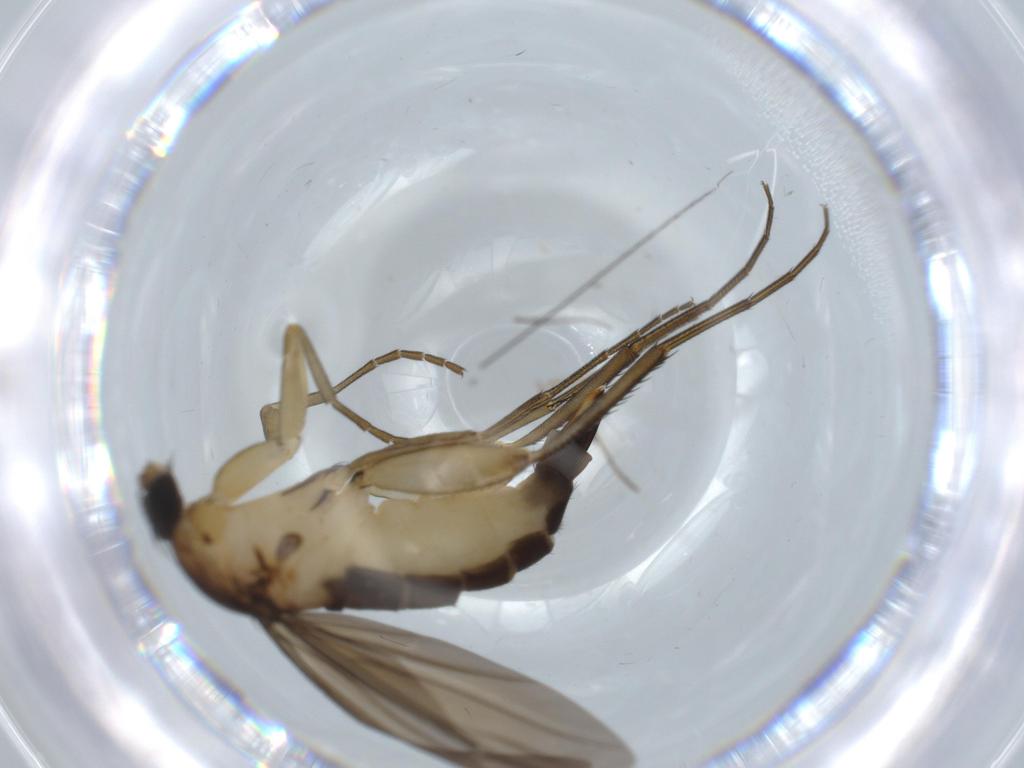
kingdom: Animalia
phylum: Arthropoda
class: Insecta
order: Diptera
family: Phoridae
